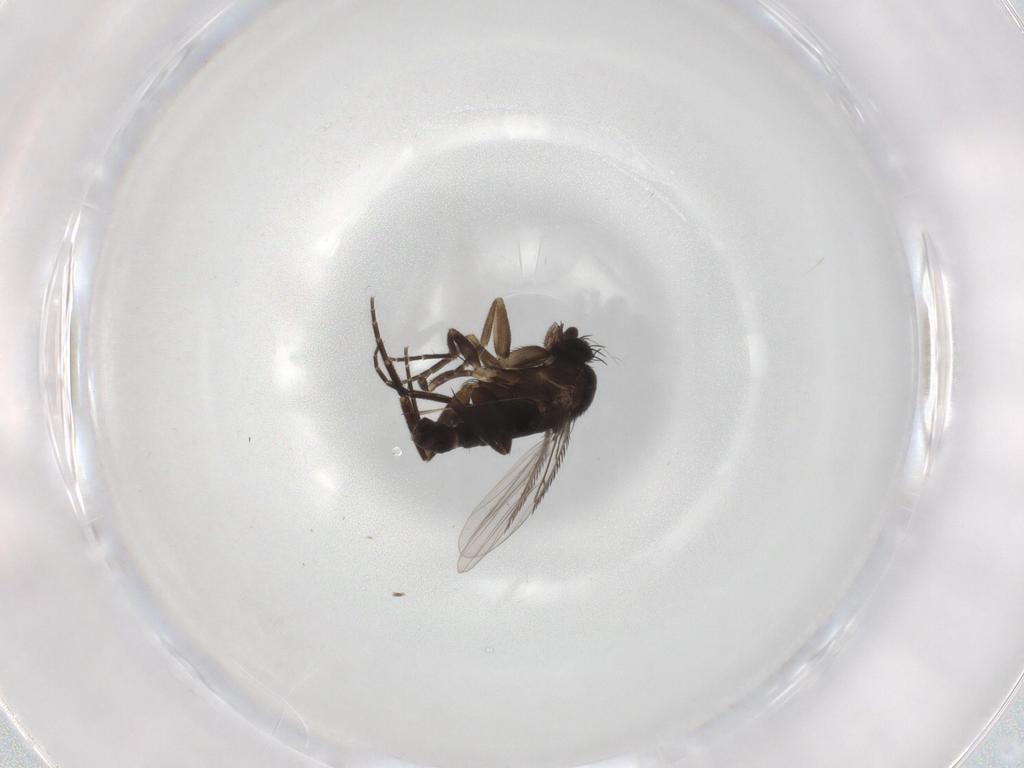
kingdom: Animalia
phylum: Arthropoda
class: Insecta
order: Diptera
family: Phoridae
